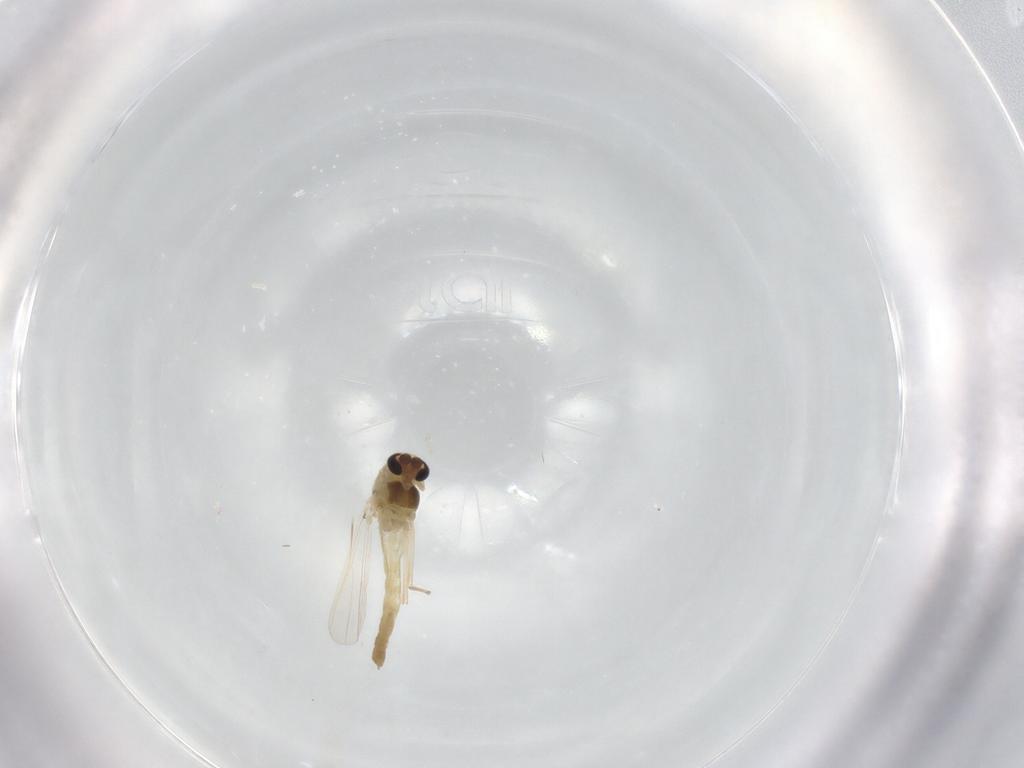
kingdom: Animalia
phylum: Arthropoda
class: Insecta
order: Diptera
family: Chironomidae
